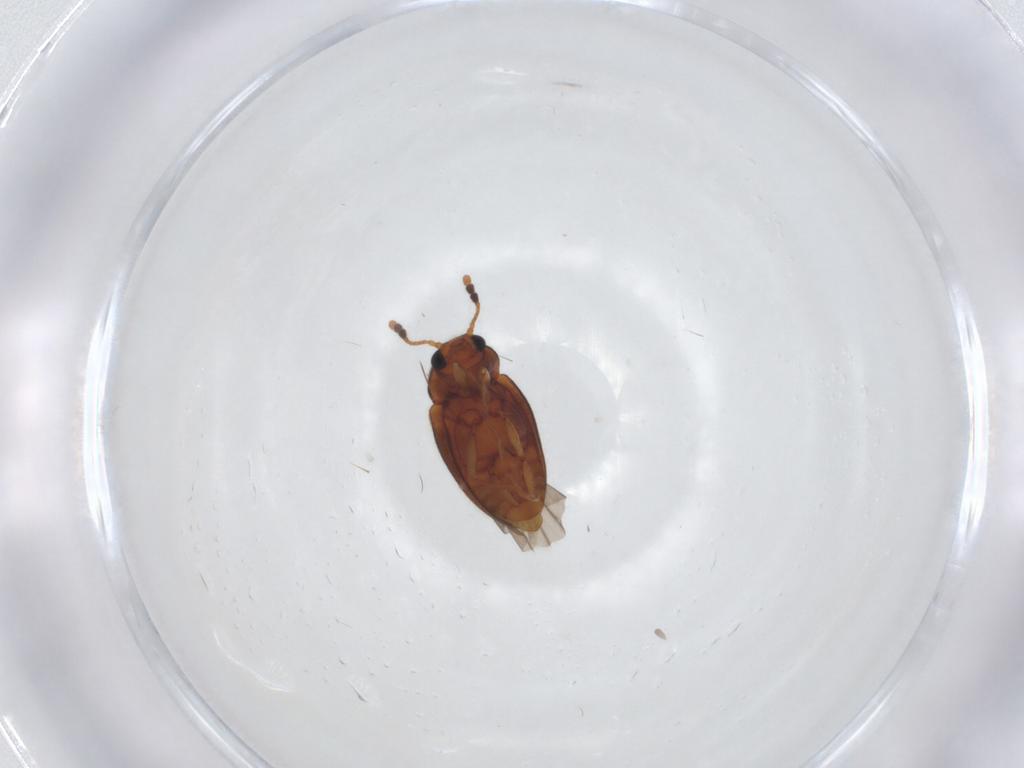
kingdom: Animalia
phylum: Arthropoda
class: Insecta
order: Coleoptera
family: Erotylidae
